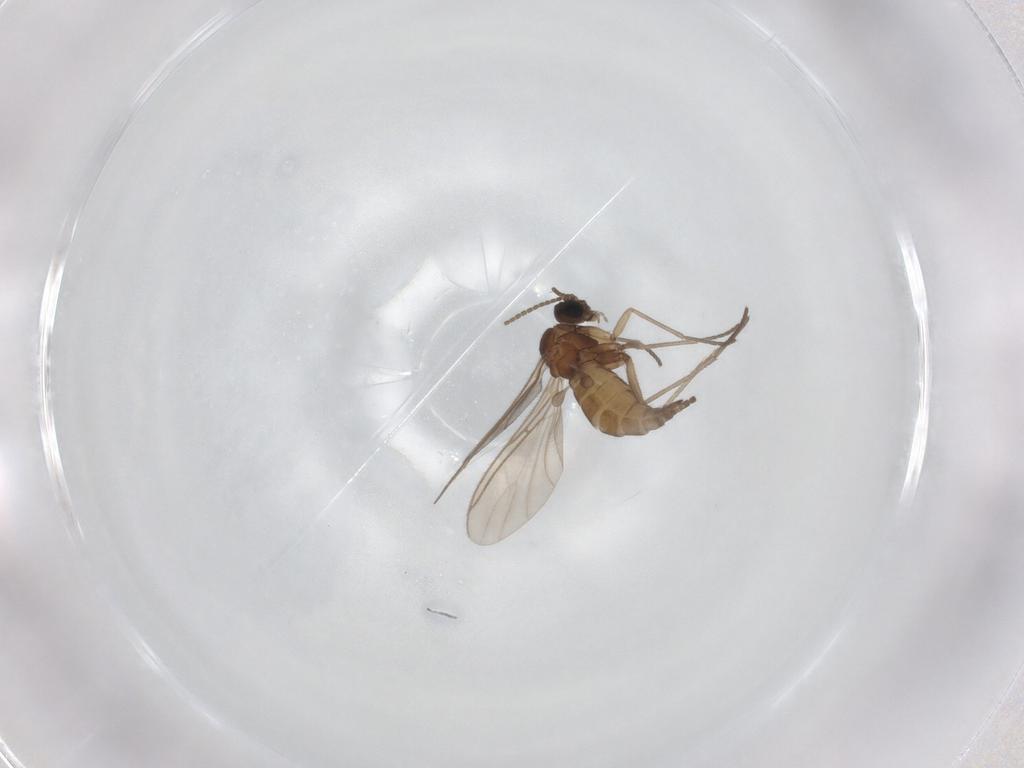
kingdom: Animalia
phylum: Arthropoda
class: Insecta
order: Diptera
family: Sciaridae
